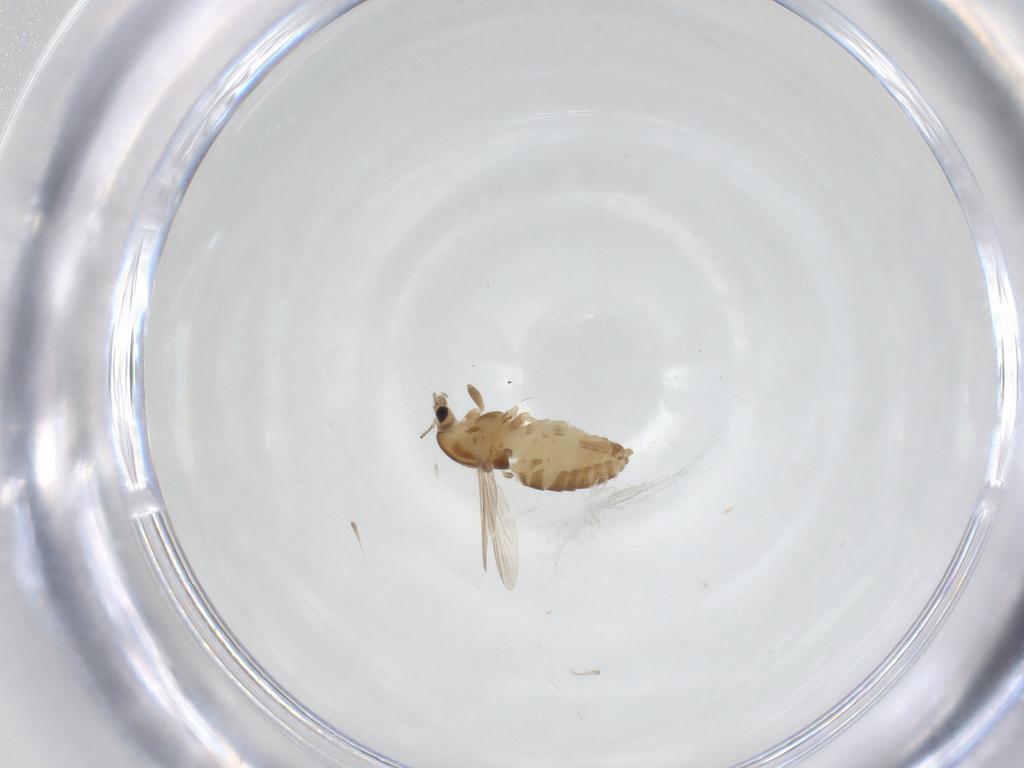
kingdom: Animalia
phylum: Arthropoda
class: Insecta
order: Diptera
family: Chironomidae
